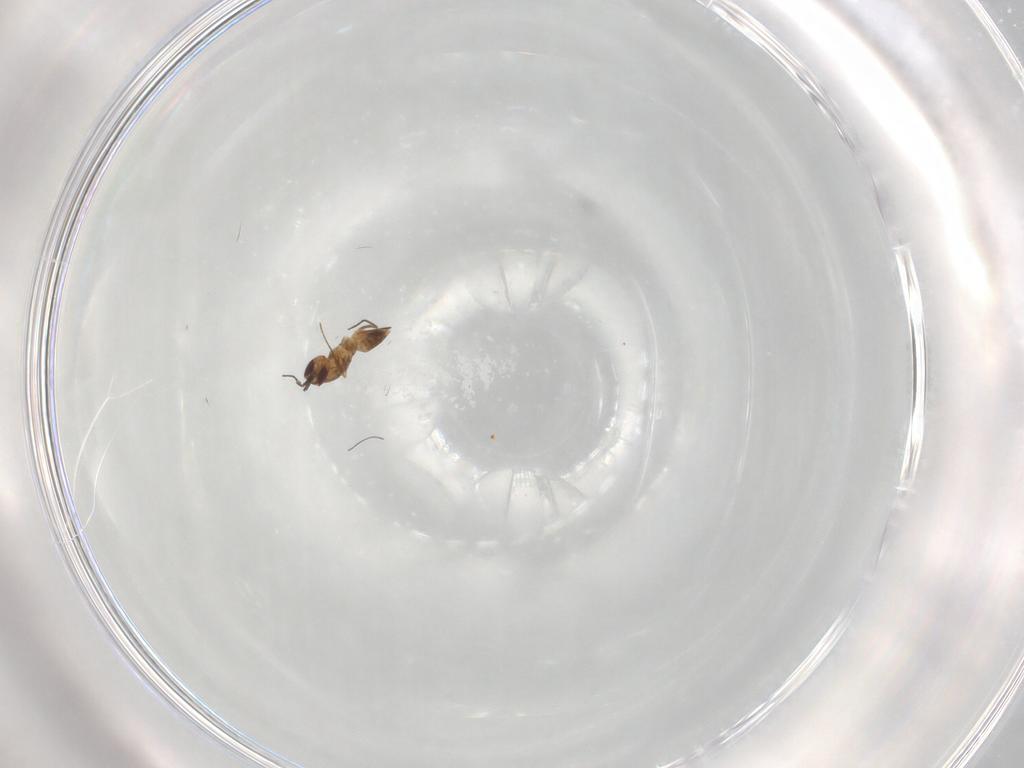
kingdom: Animalia
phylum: Arthropoda
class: Insecta
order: Hymenoptera
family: Mymaridae
